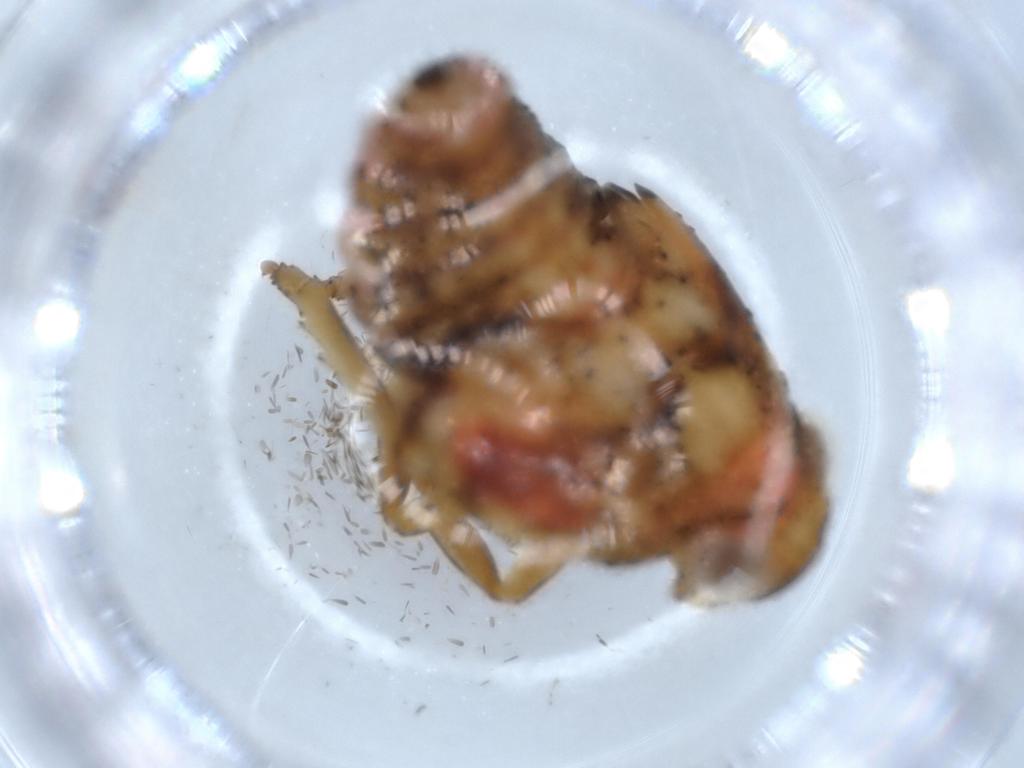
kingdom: Animalia
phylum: Arthropoda
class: Insecta
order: Hemiptera
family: Issidae
